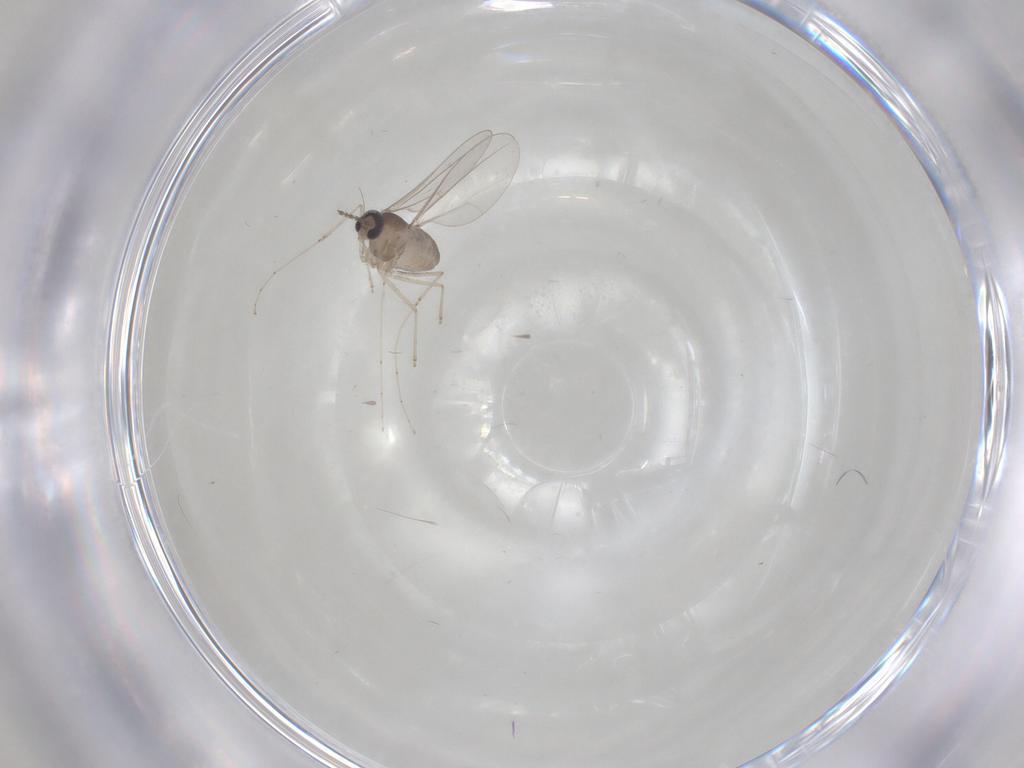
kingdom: Animalia
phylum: Arthropoda
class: Insecta
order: Diptera
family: Cecidomyiidae
